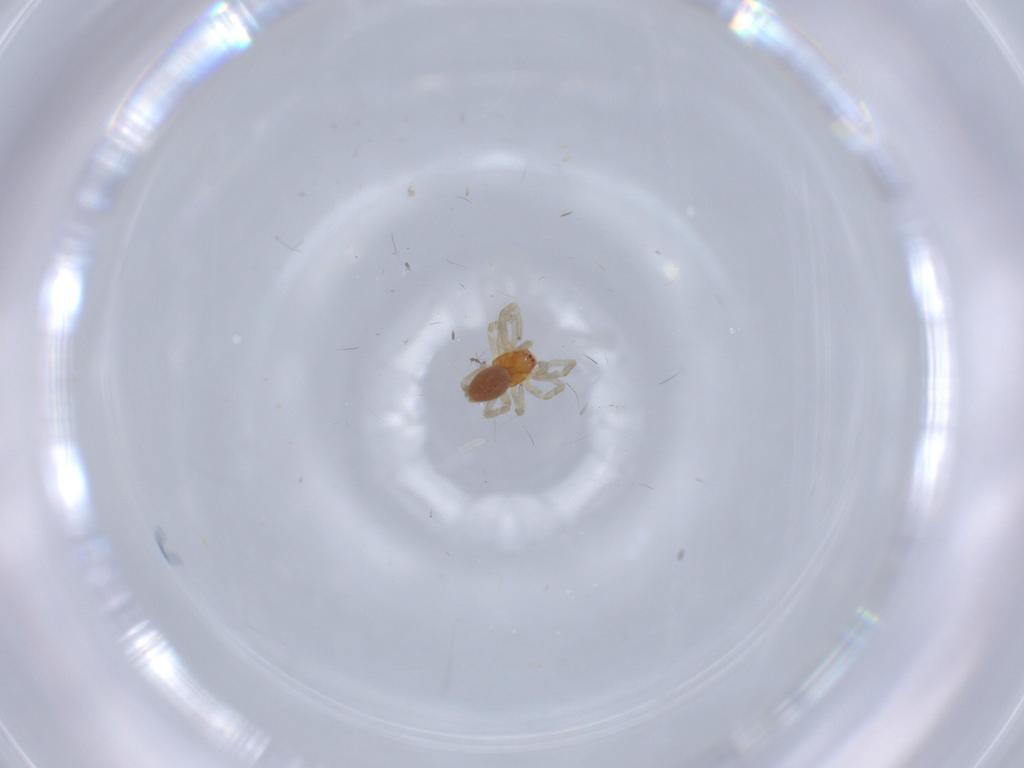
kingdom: Animalia
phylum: Arthropoda
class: Arachnida
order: Araneae
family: Dictynidae
